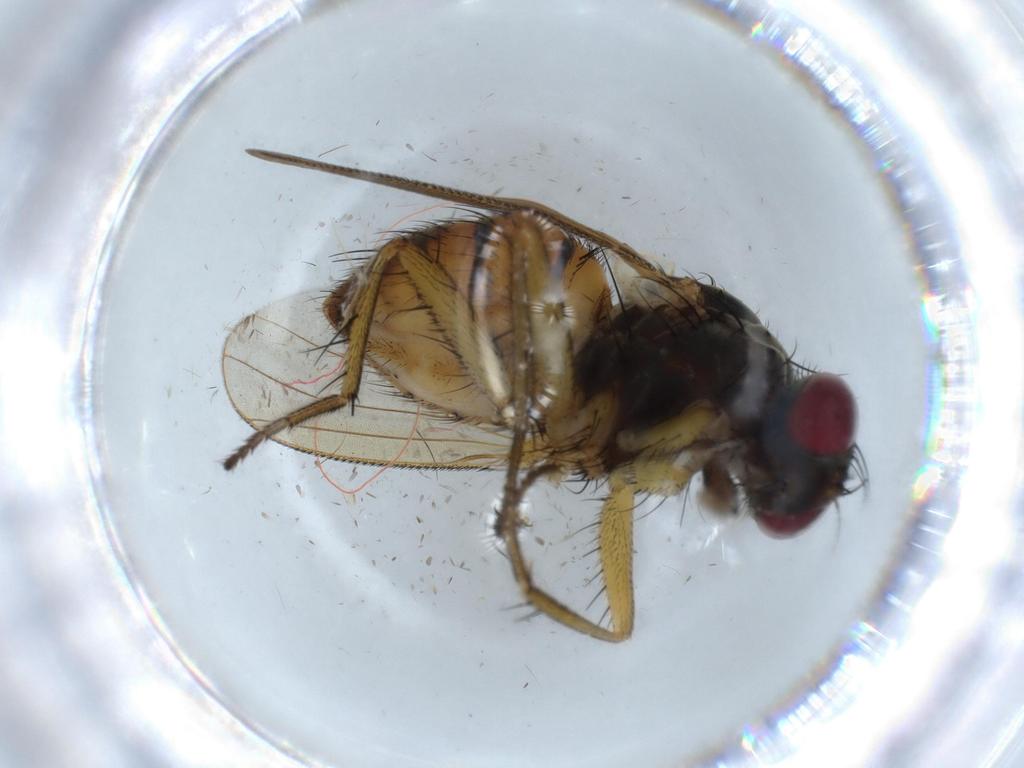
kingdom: Animalia
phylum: Arthropoda
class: Insecta
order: Diptera
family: Muscidae
